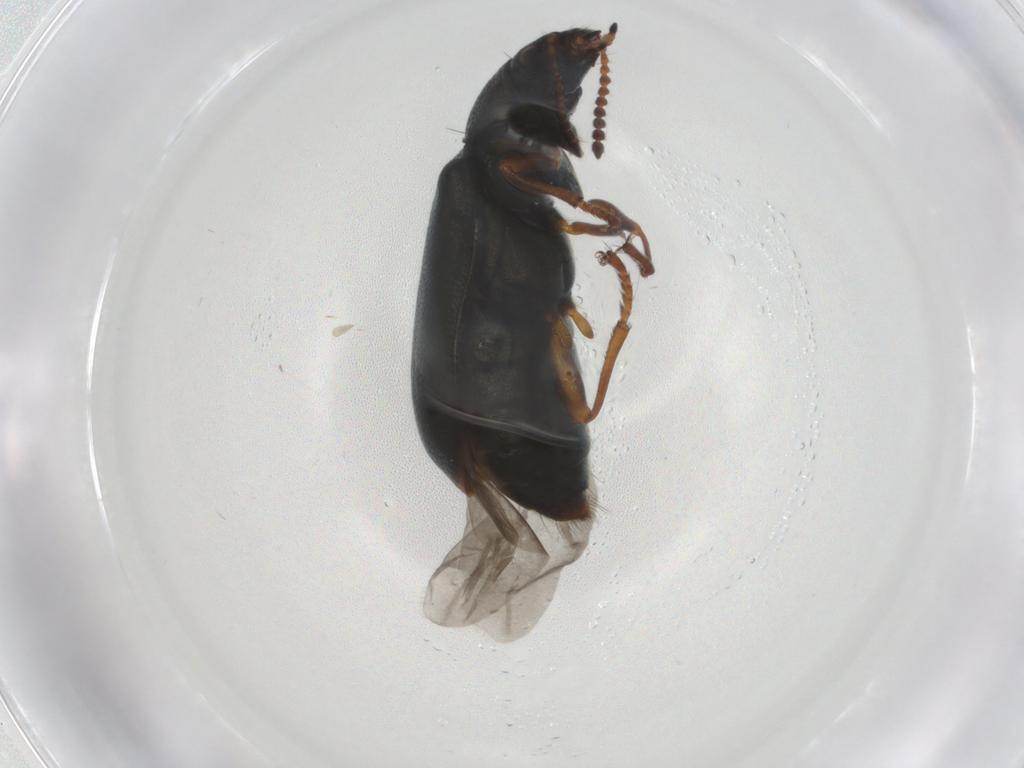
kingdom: Animalia
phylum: Arthropoda
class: Insecta
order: Coleoptera
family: Melyridae
